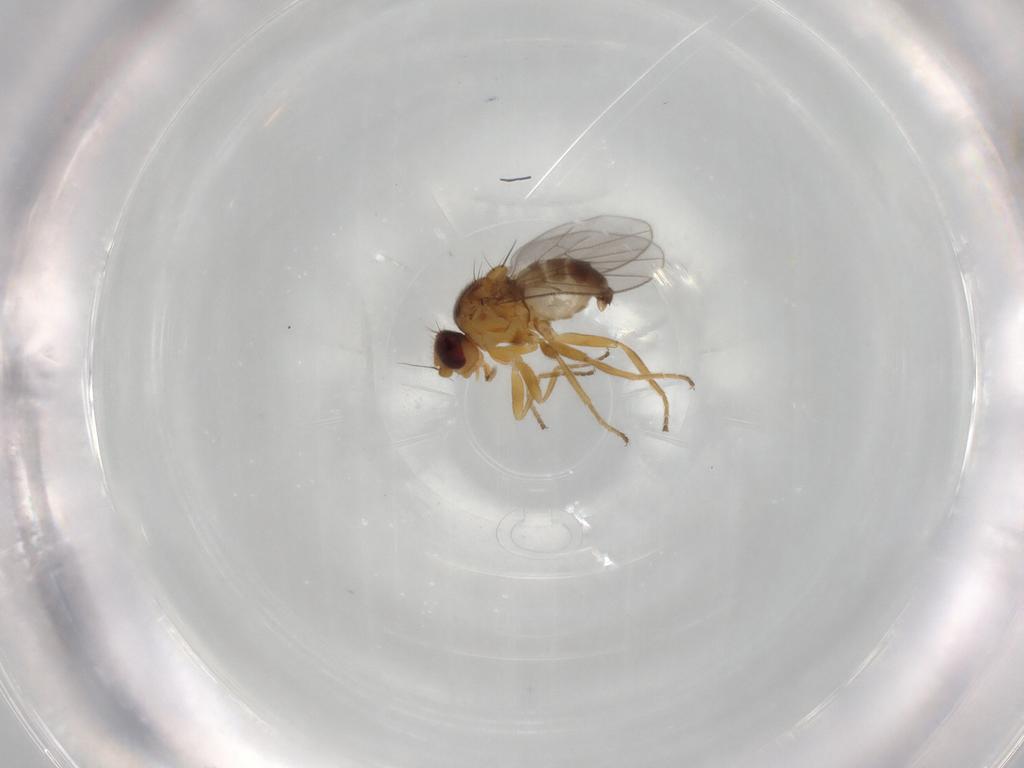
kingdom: Animalia
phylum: Arthropoda
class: Insecta
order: Diptera
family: Chloropidae
